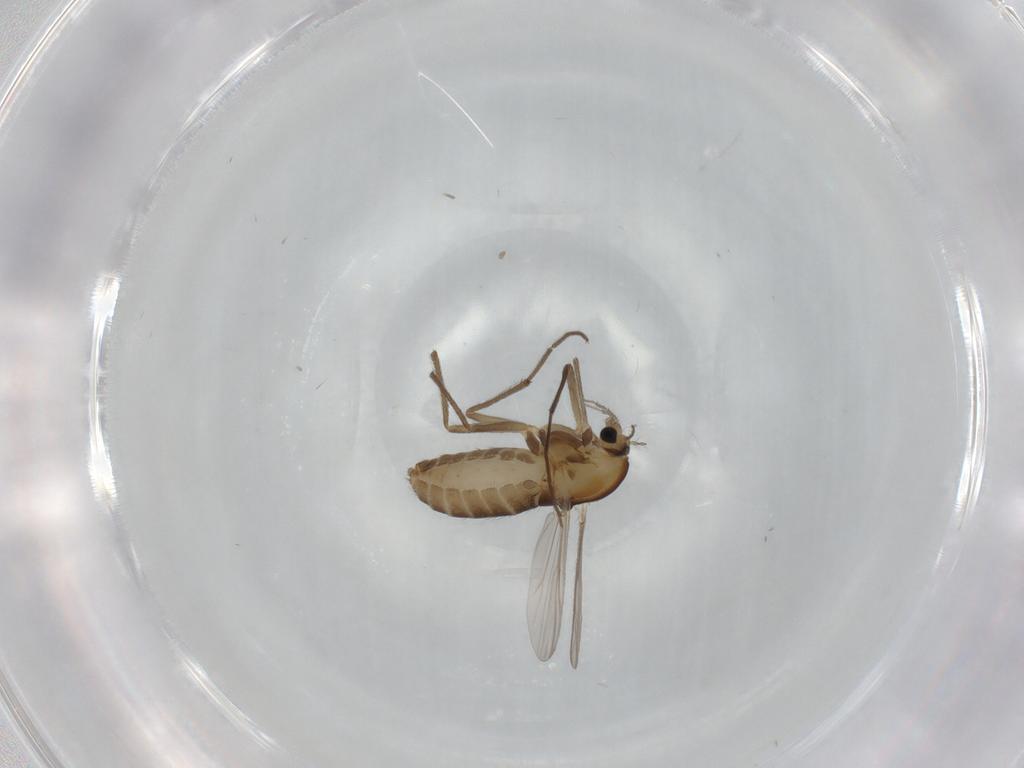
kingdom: Animalia
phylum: Arthropoda
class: Insecta
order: Diptera
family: Chironomidae
